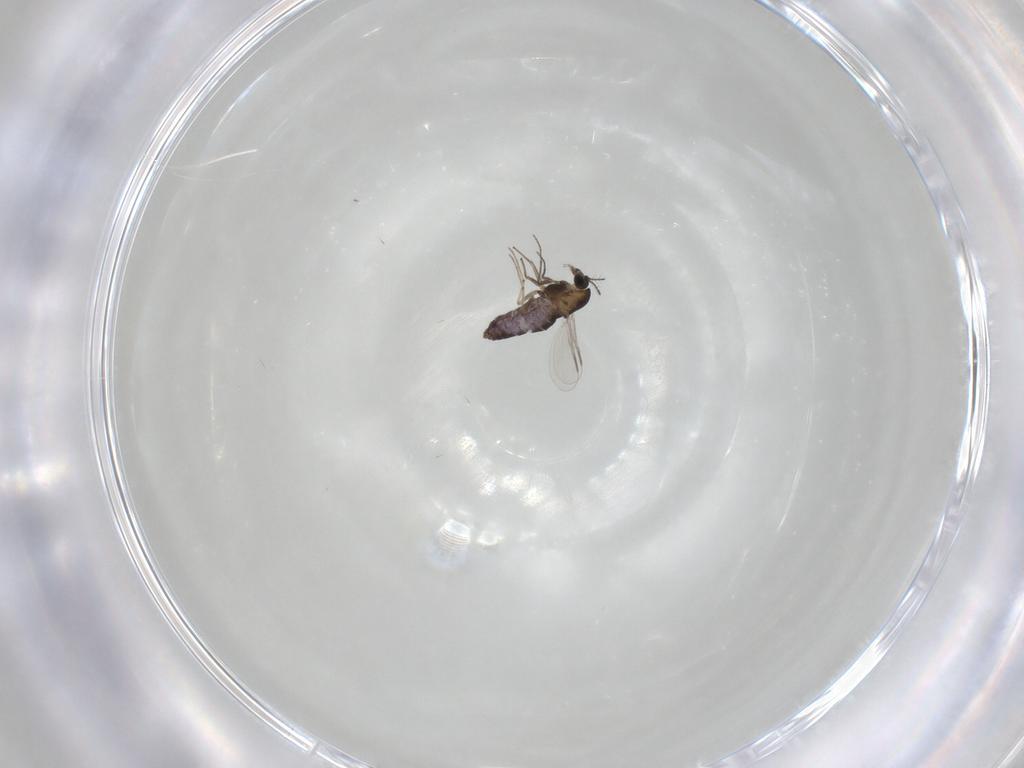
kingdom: Animalia
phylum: Arthropoda
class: Insecta
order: Diptera
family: Chironomidae
